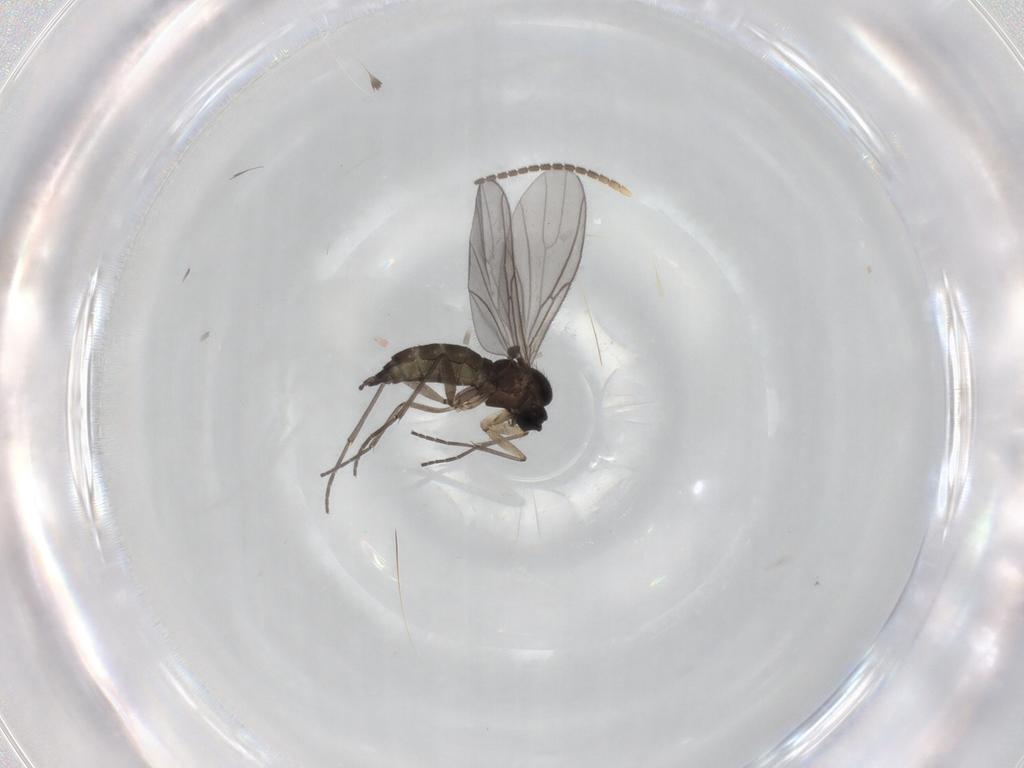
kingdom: Animalia
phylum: Arthropoda
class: Insecta
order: Diptera
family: Sciaridae
